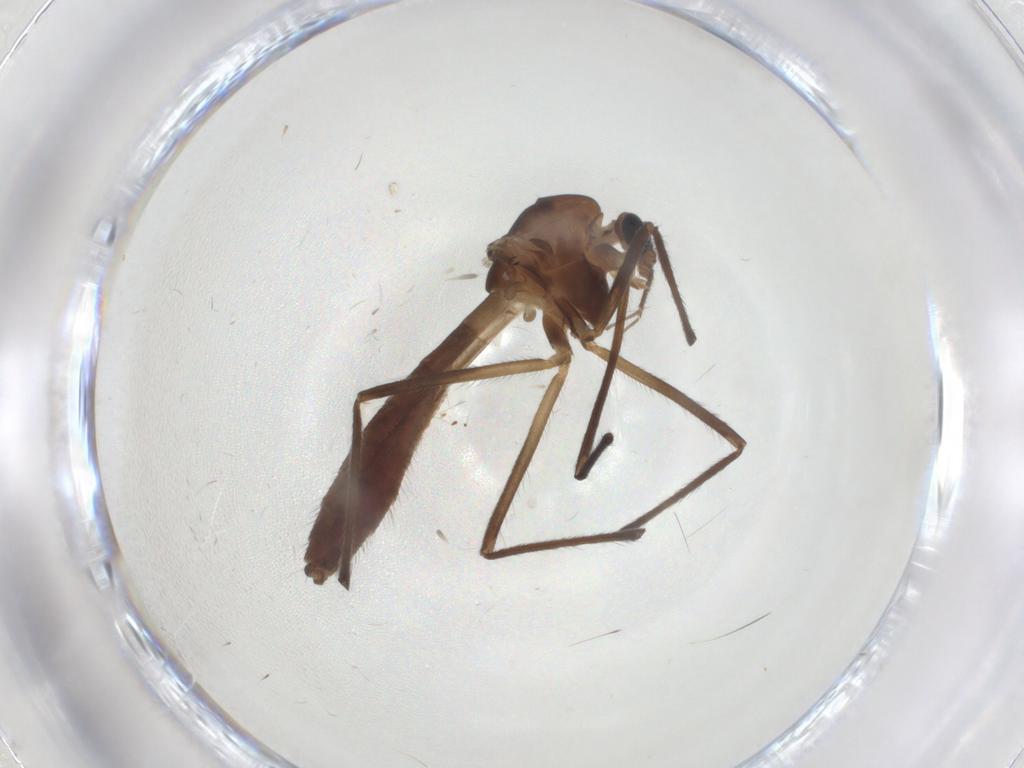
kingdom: Animalia
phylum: Arthropoda
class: Insecta
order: Diptera
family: Chironomidae
